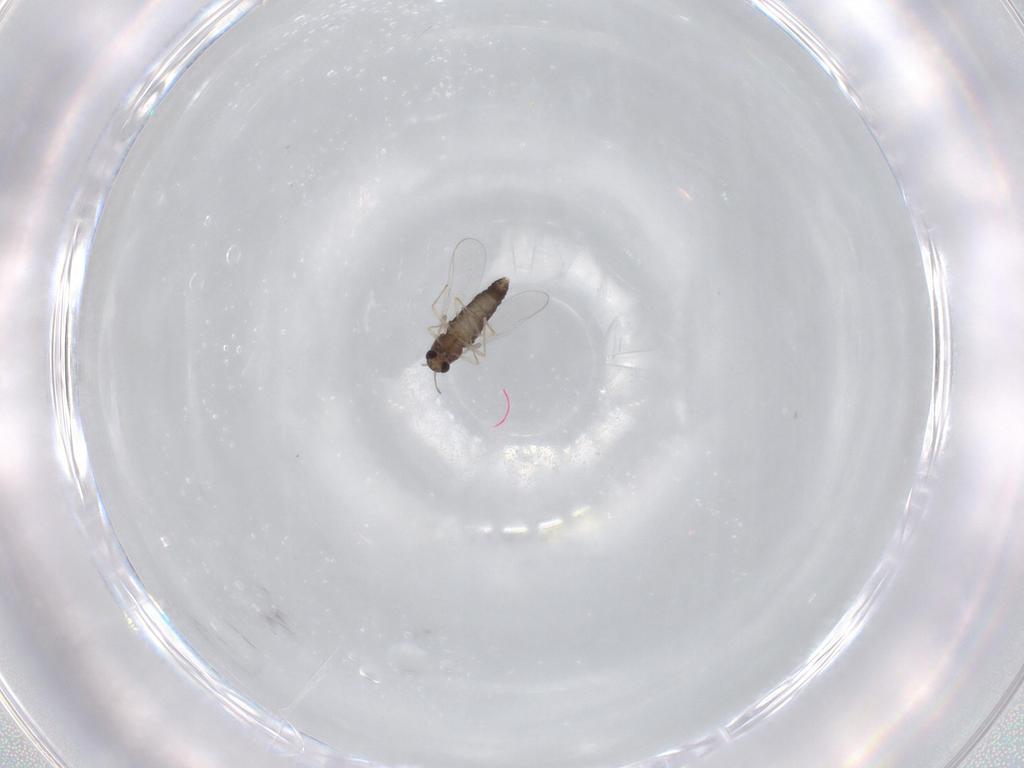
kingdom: Animalia
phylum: Arthropoda
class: Insecta
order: Diptera
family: Chironomidae
